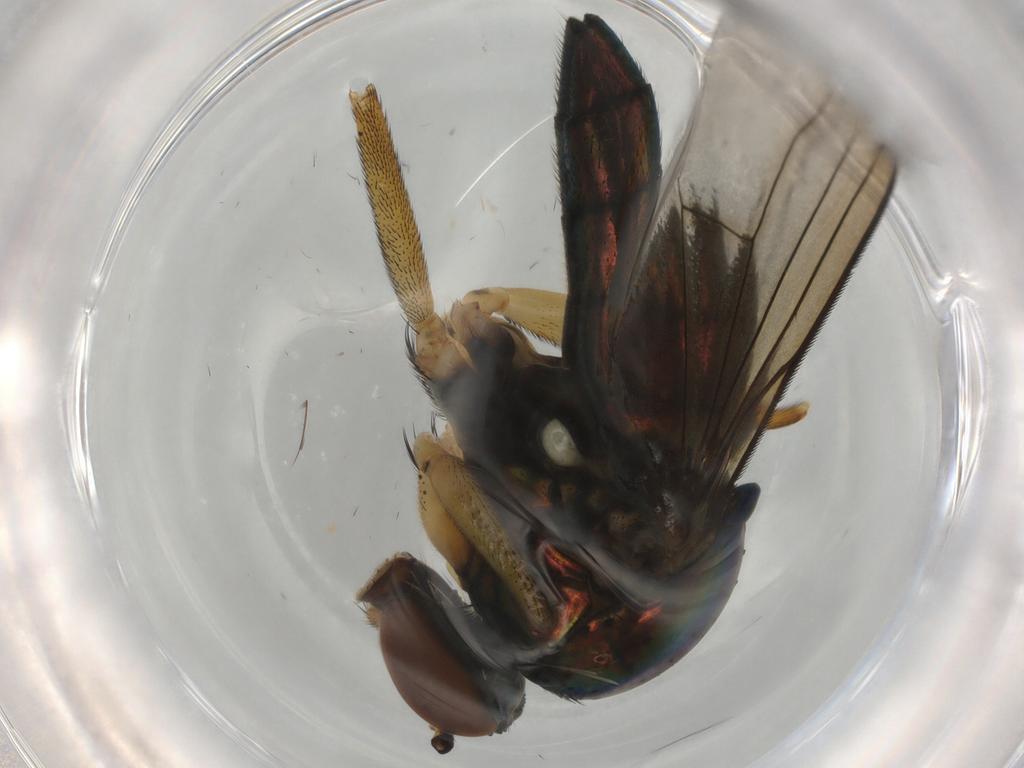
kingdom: Animalia
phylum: Arthropoda
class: Insecta
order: Diptera
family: Dolichopodidae
